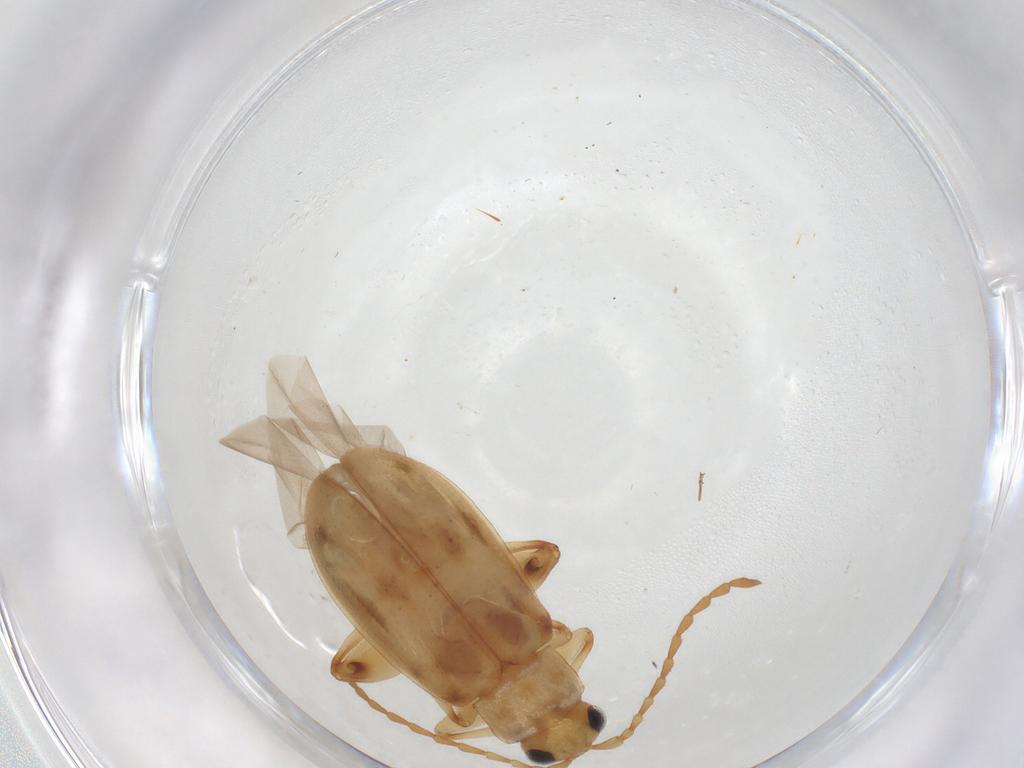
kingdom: Animalia
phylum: Arthropoda
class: Insecta
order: Coleoptera
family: Chrysomelidae
